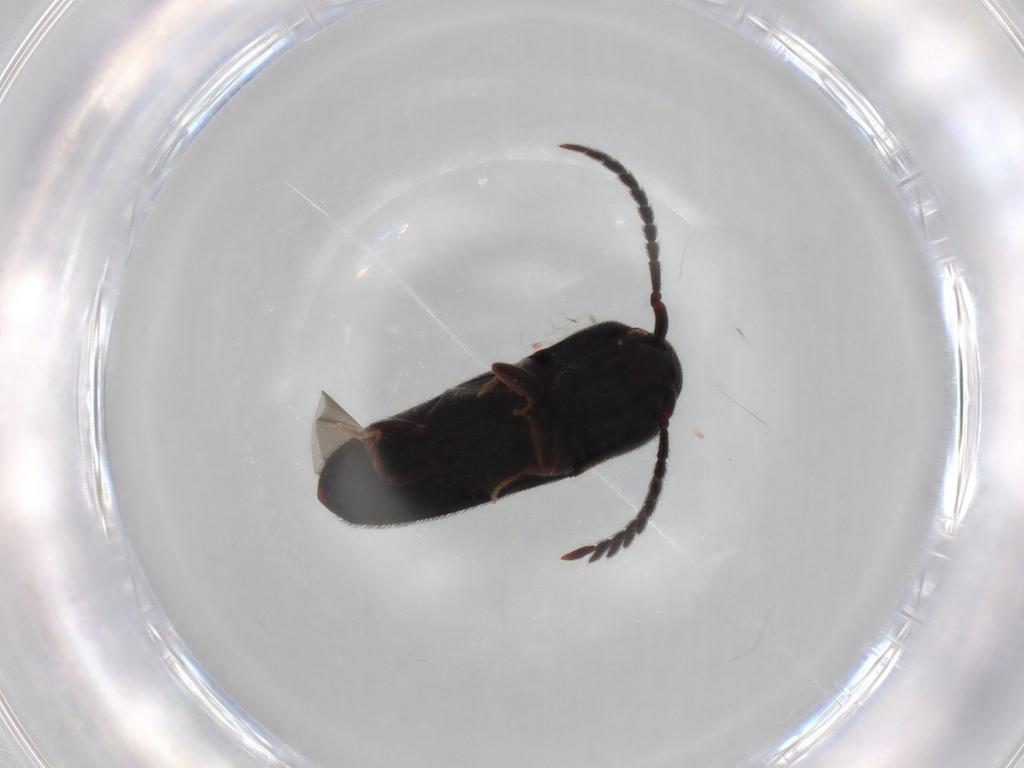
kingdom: Animalia
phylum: Arthropoda
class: Insecta
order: Coleoptera
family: Eucnemidae
